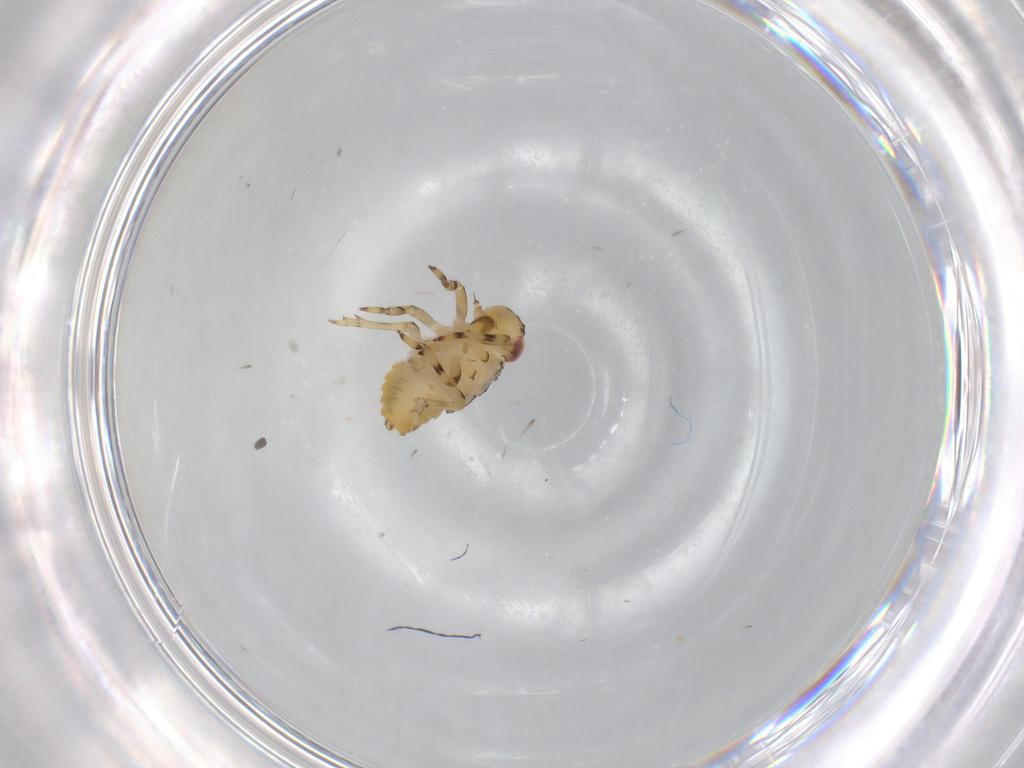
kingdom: Animalia
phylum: Arthropoda
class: Insecta
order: Hemiptera
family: Issidae
